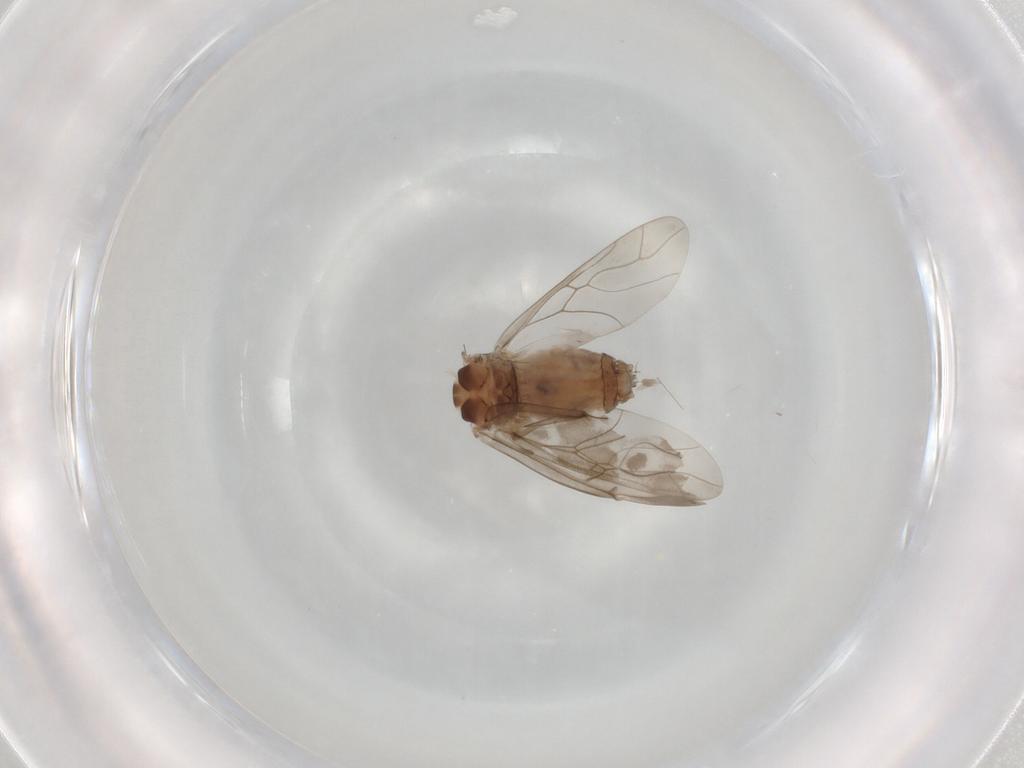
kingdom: Animalia
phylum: Arthropoda
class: Insecta
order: Psocodea
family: Peripsocidae
